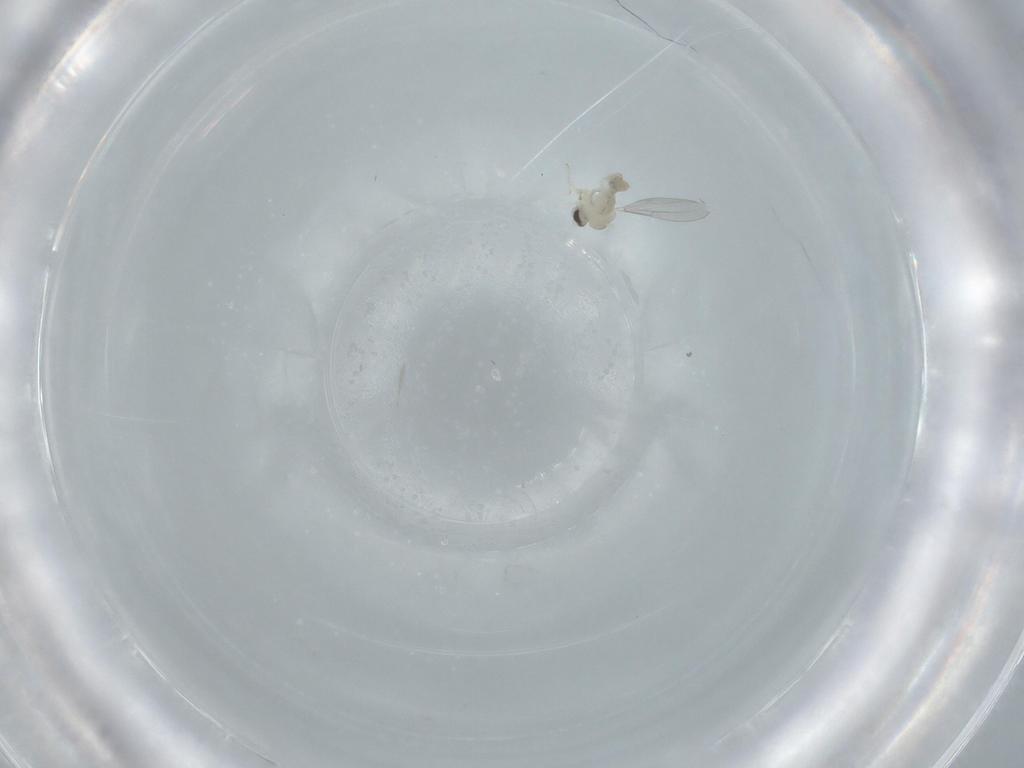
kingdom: Animalia
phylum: Arthropoda
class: Insecta
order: Diptera
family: Cecidomyiidae
